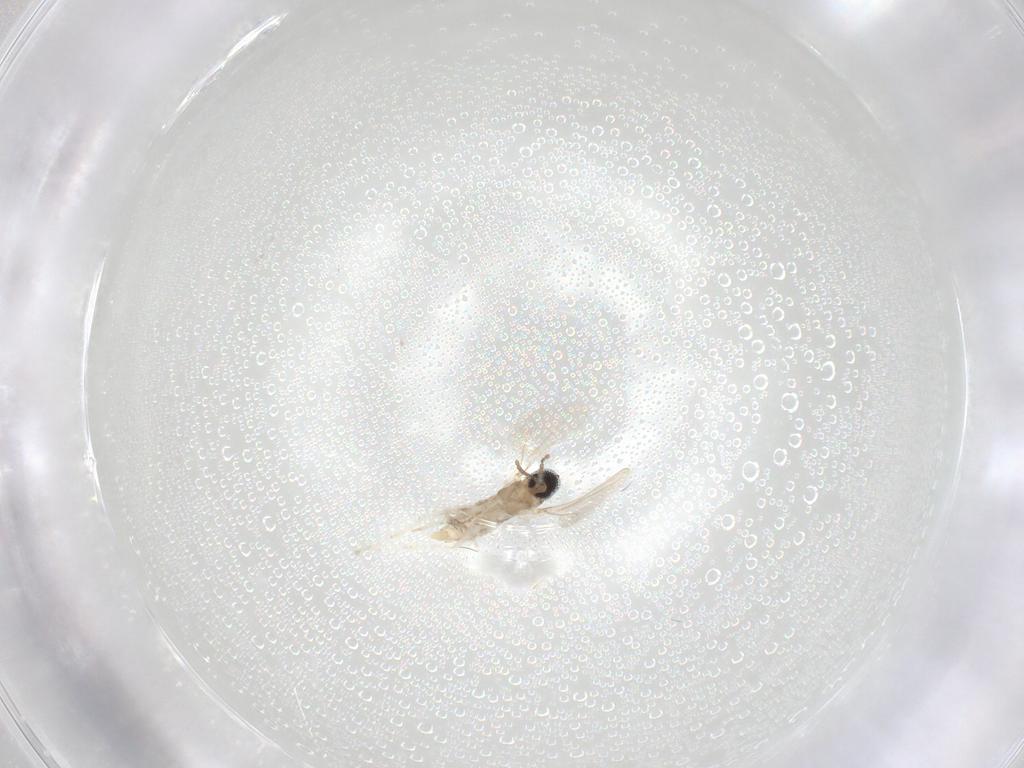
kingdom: Animalia
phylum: Arthropoda
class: Insecta
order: Diptera
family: Cecidomyiidae
